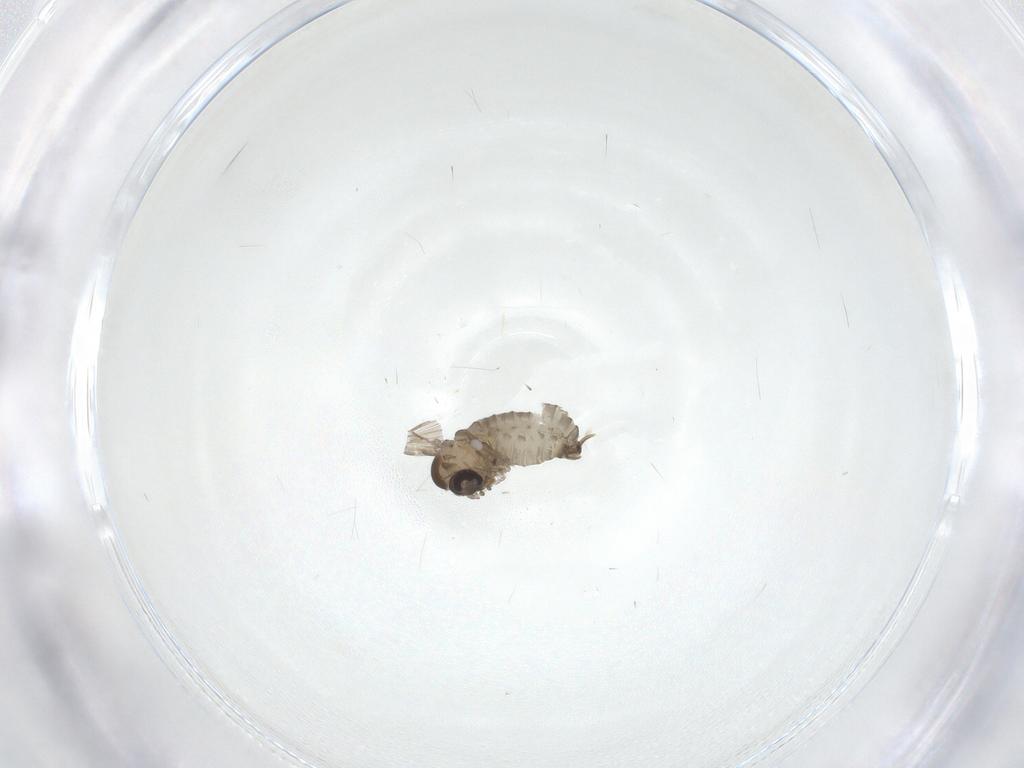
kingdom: Animalia
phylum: Arthropoda
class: Insecta
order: Diptera
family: Psychodidae
